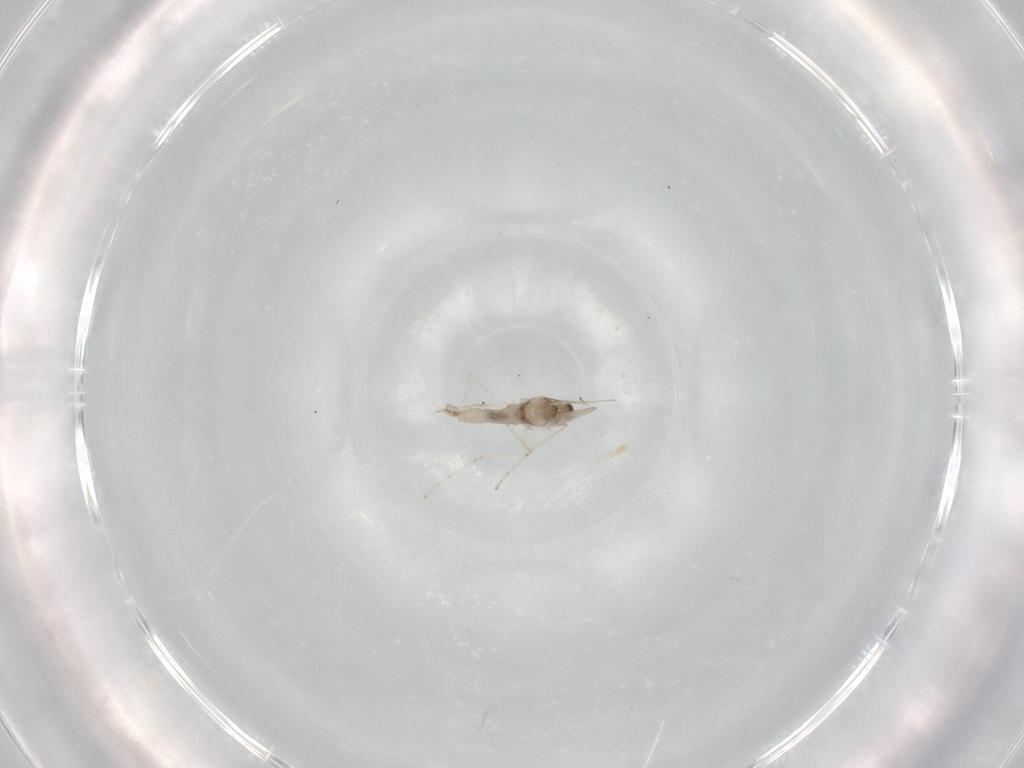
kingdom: Animalia
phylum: Arthropoda
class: Insecta
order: Diptera
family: Cecidomyiidae
